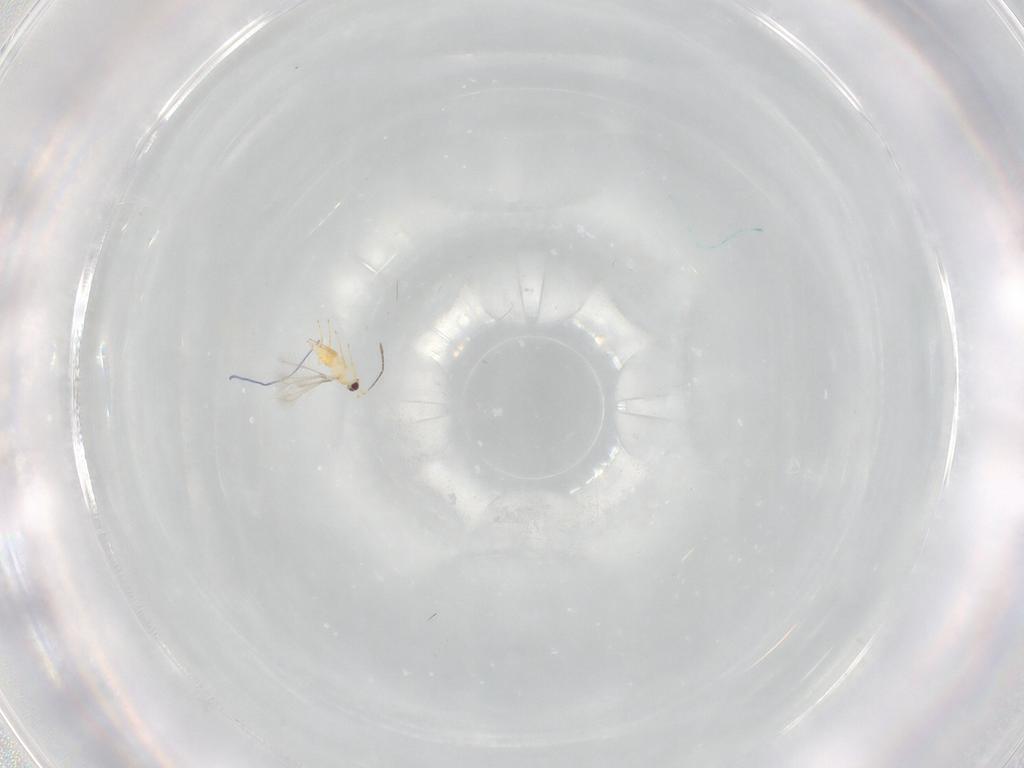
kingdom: Animalia
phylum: Arthropoda
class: Insecta
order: Hymenoptera
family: Mymaridae
